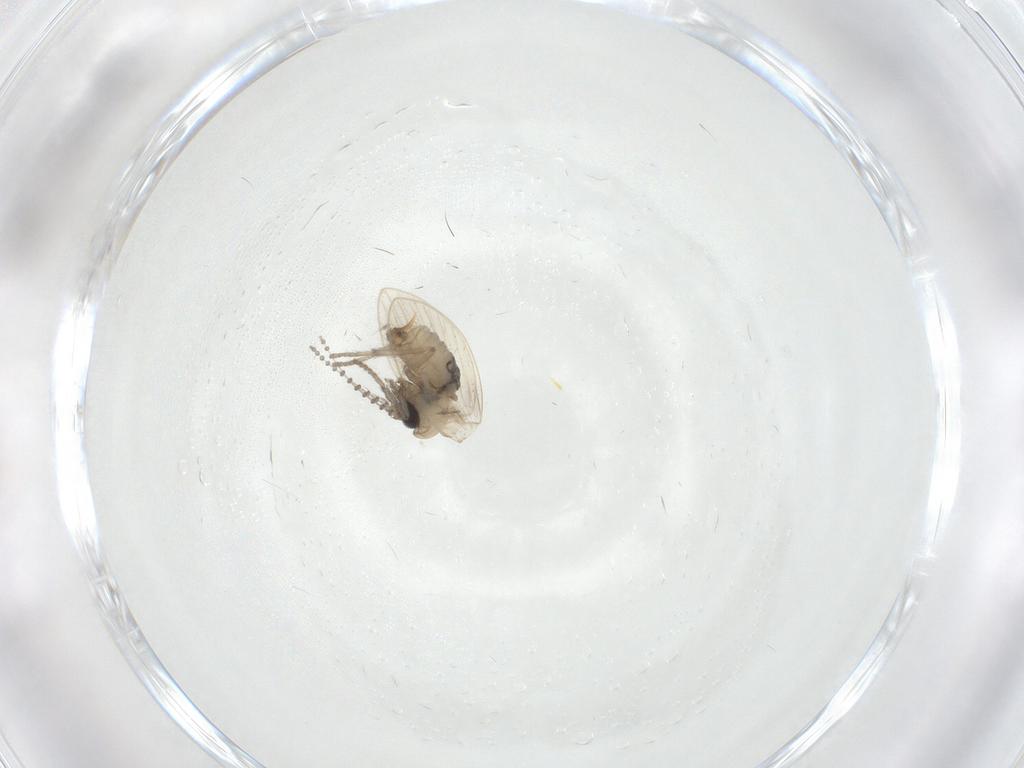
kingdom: Animalia
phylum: Arthropoda
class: Insecta
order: Diptera
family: Psychodidae
